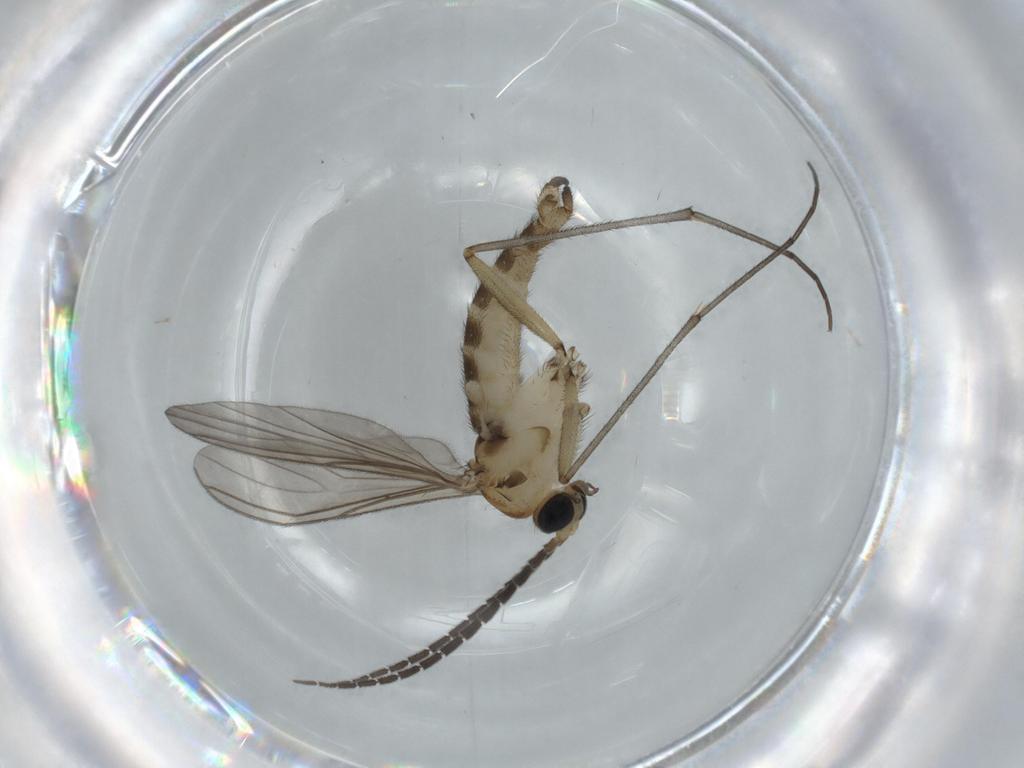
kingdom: Animalia
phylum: Arthropoda
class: Insecta
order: Diptera
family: Sciaridae
